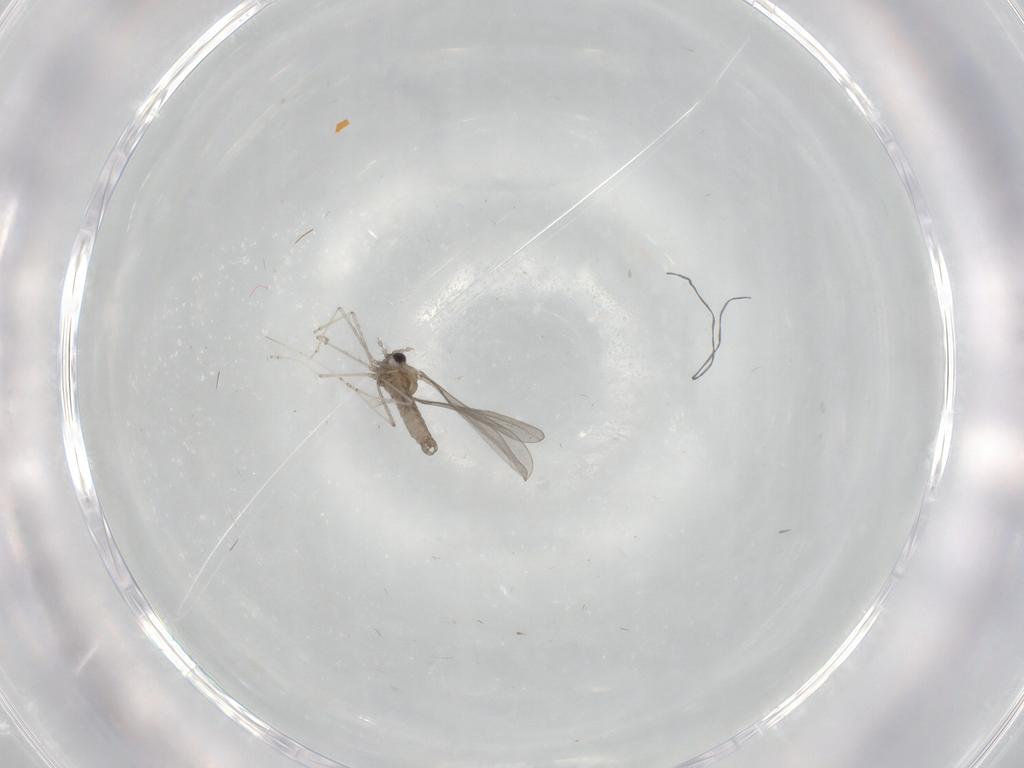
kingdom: Animalia
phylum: Arthropoda
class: Insecta
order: Diptera
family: Cecidomyiidae
